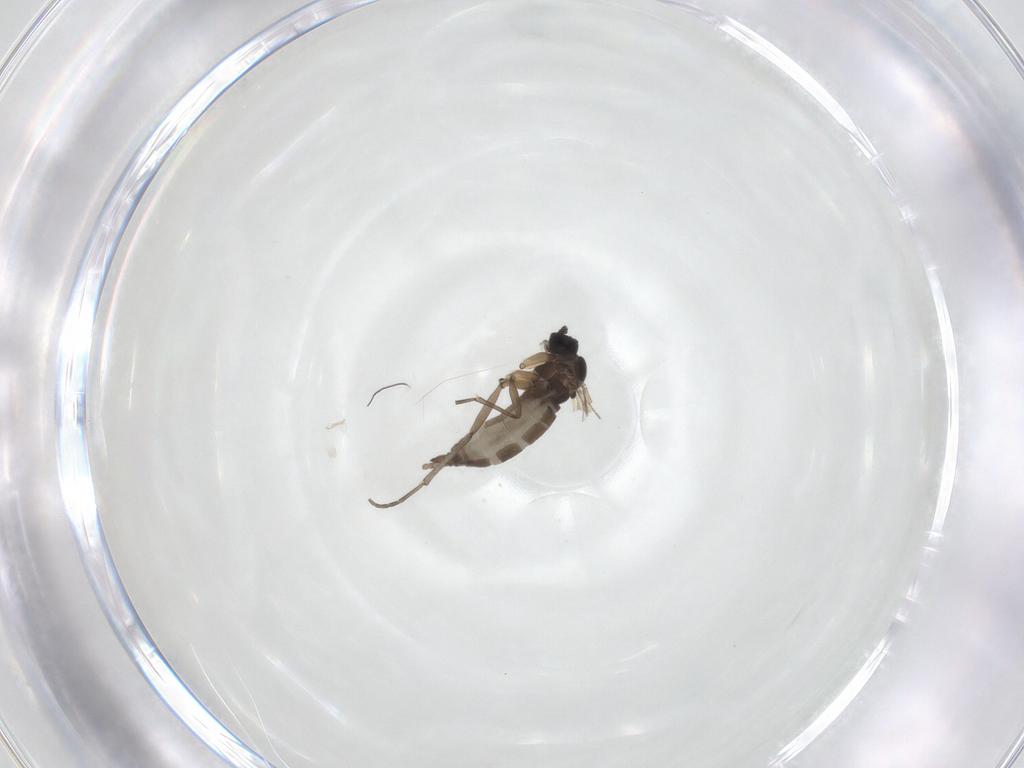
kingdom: Animalia
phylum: Arthropoda
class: Insecta
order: Diptera
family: Sciaridae
